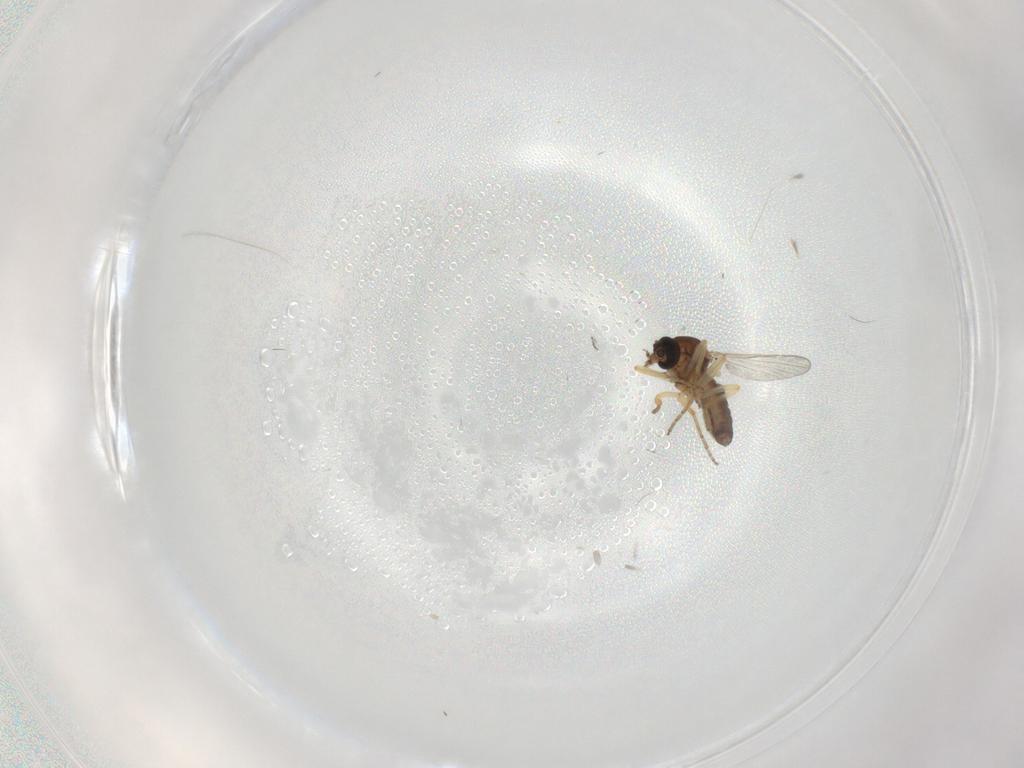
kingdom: Animalia
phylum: Arthropoda
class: Insecta
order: Diptera
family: Ceratopogonidae
